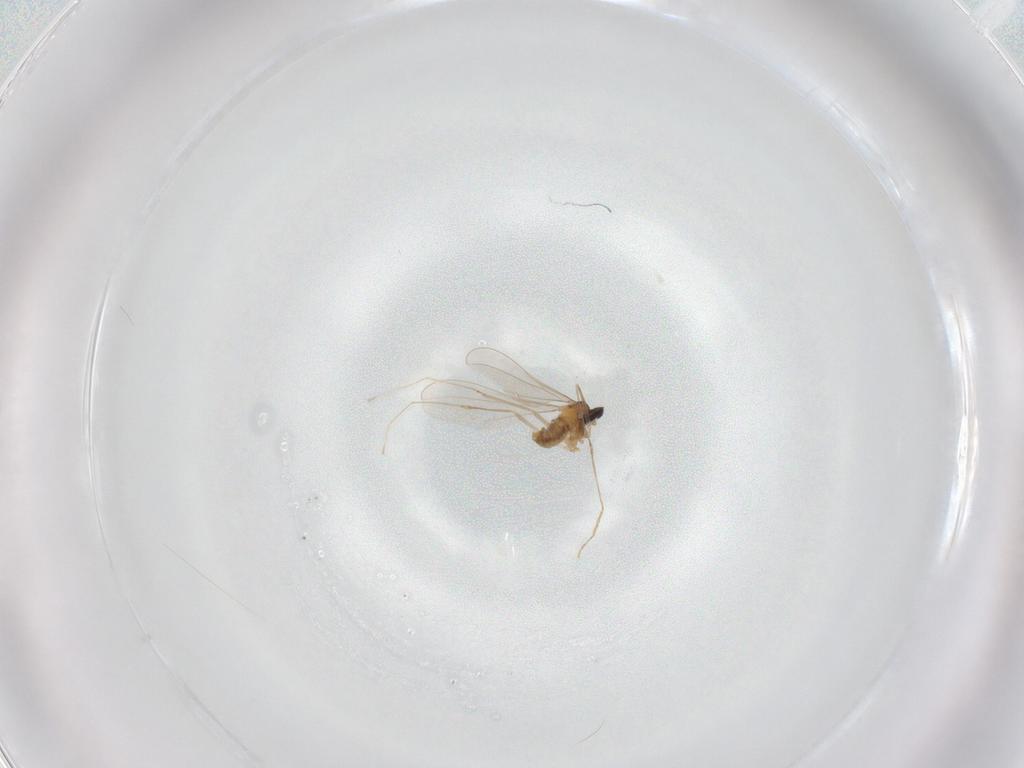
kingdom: Animalia
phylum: Arthropoda
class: Insecta
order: Diptera
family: Cecidomyiidae
